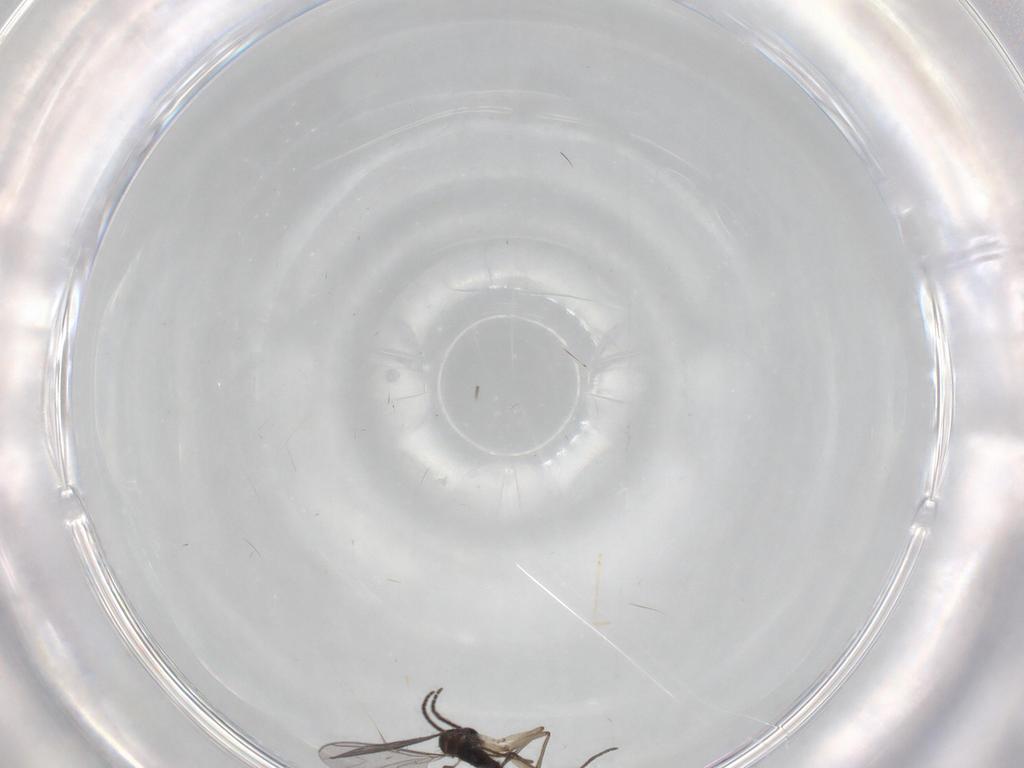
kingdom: Animalia
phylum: Arthropoda
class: Insecta
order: Diptera
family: Sciaridae
